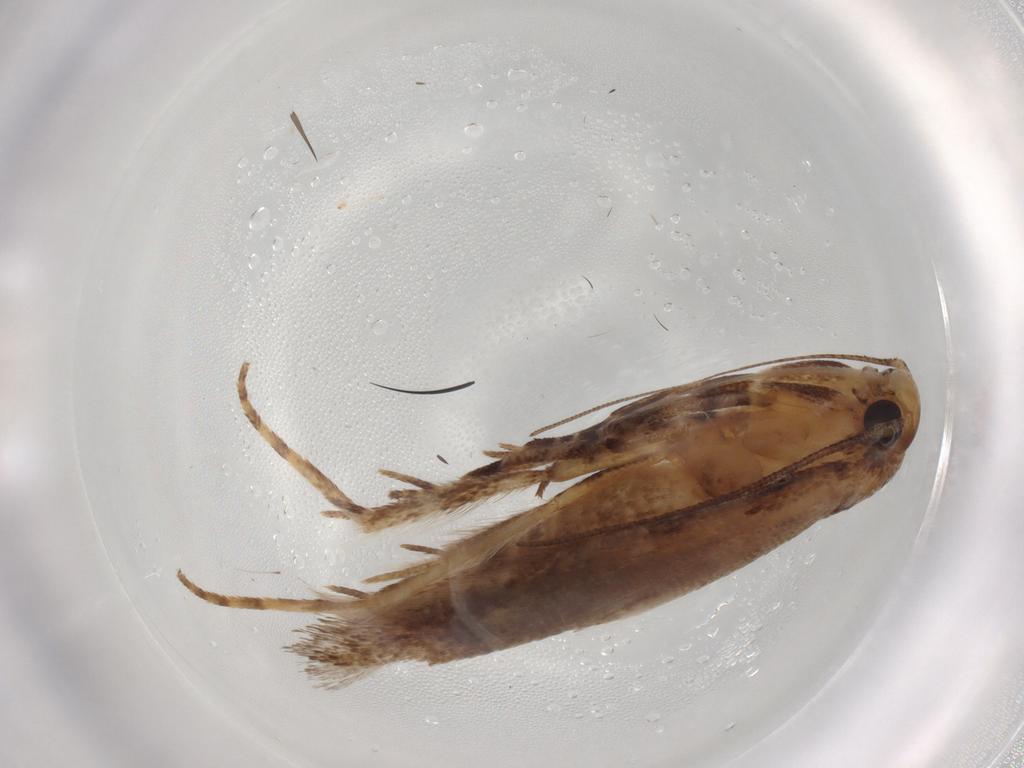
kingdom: Animalia
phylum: Arthropoda
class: Insecta
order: Lepidoptera
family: Gelechiidae
